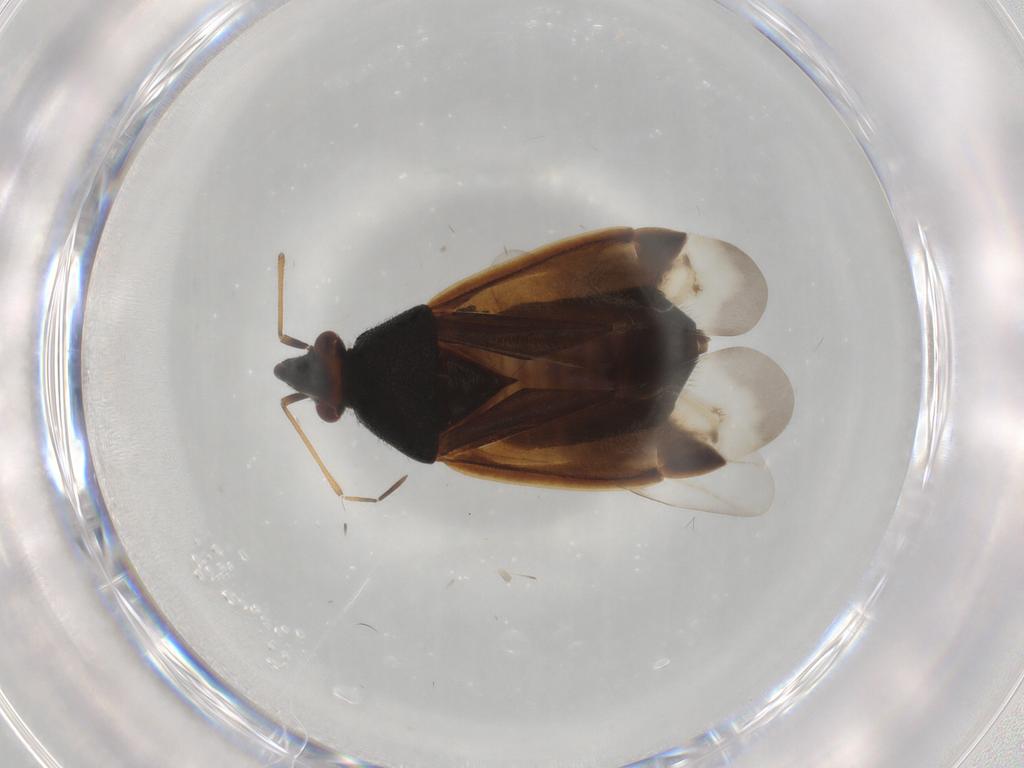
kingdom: Animalia
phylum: Arthropoda
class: Insecta
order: Hemiptera
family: Miridae
